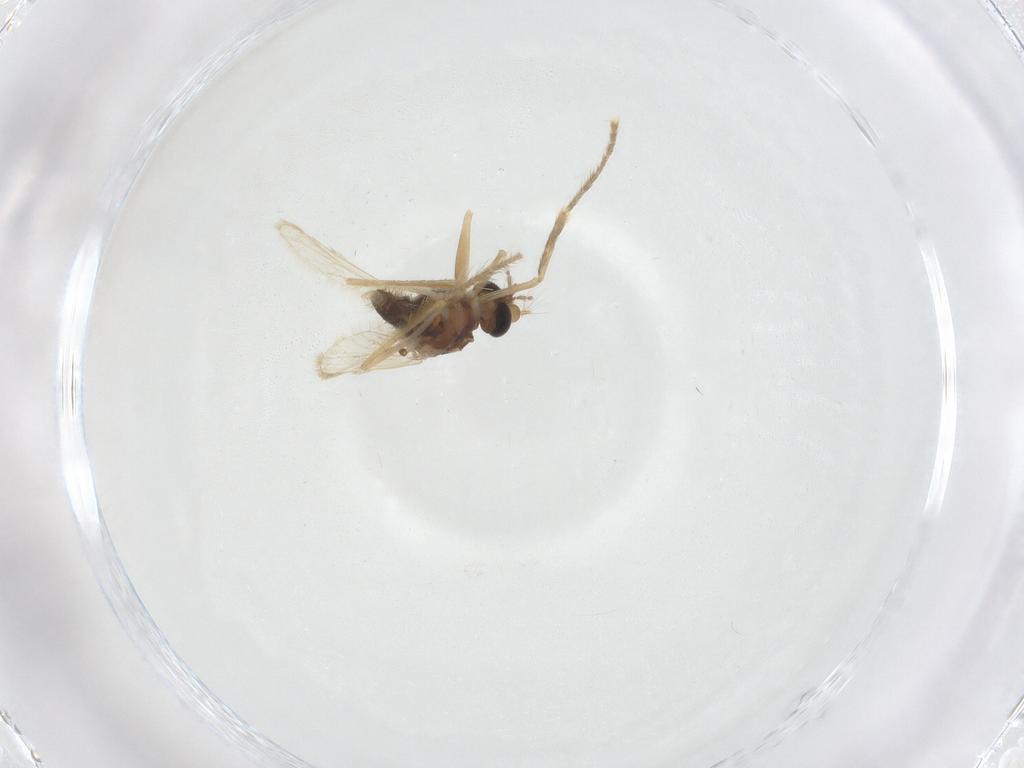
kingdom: Animalia
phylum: Arthropoda
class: Insecta
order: Diptera
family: Corethrellidae
